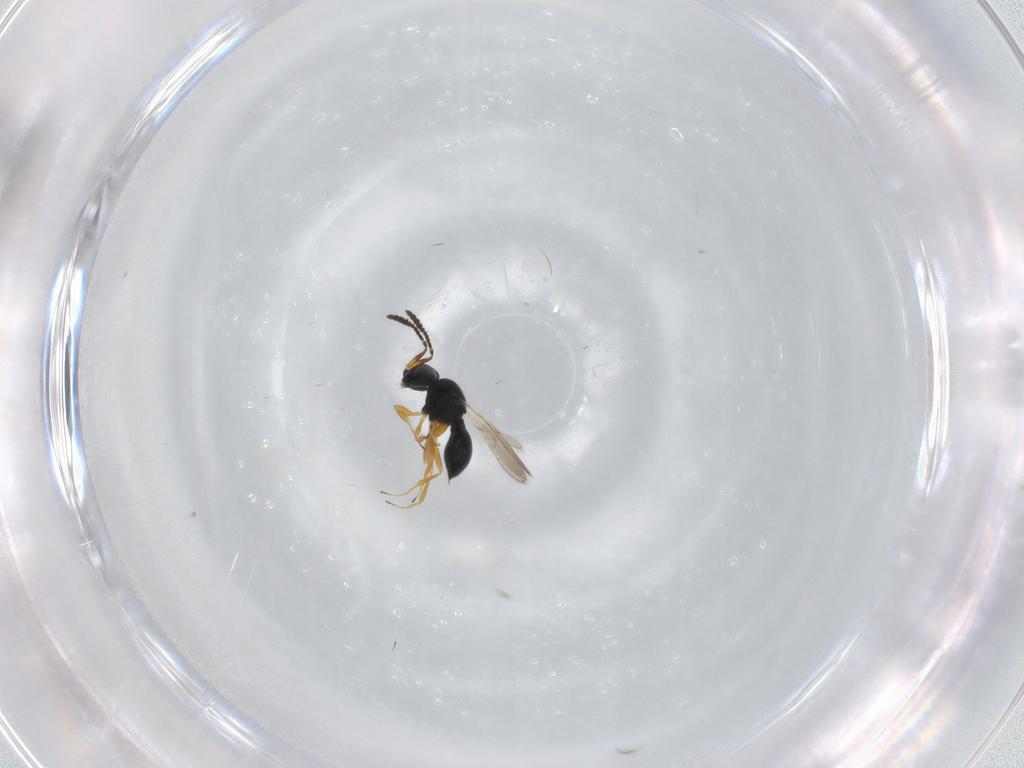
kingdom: Animalia
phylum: Arthropoda
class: Insecta
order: Hymenoptera
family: Scelionidae
